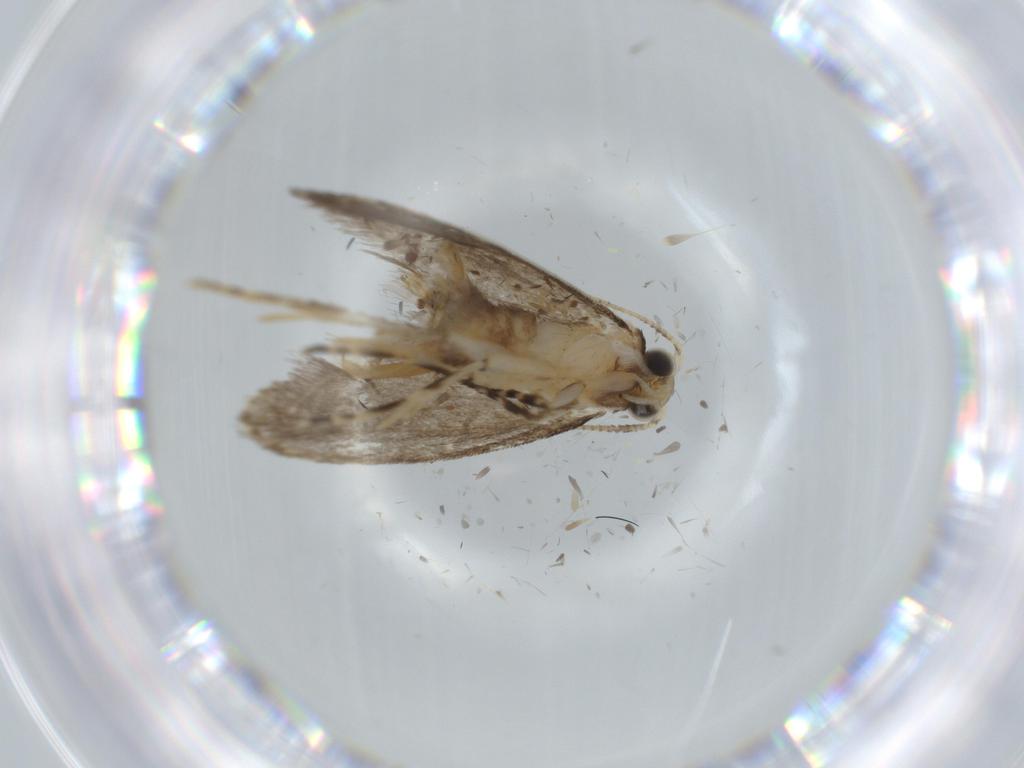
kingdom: Animalia
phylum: Arthropoda
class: Insecta
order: Lepidoptera
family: Tineidae
